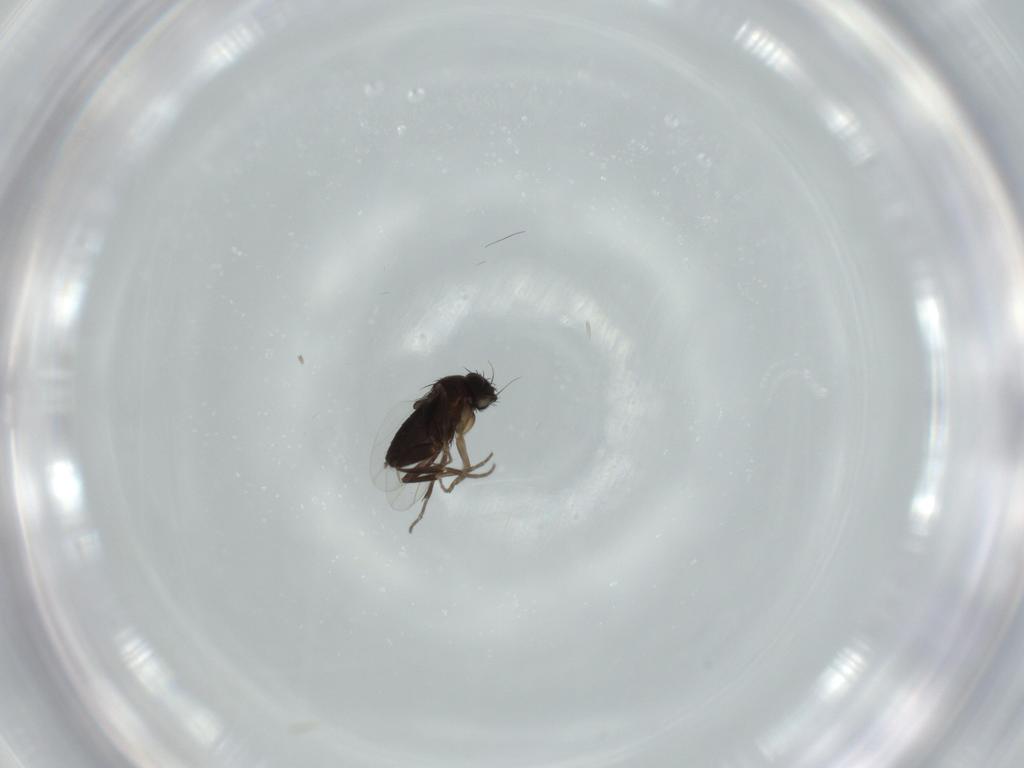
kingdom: Animalia
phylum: Arthropoda
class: Insecta
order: Diptera
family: Phoridae
